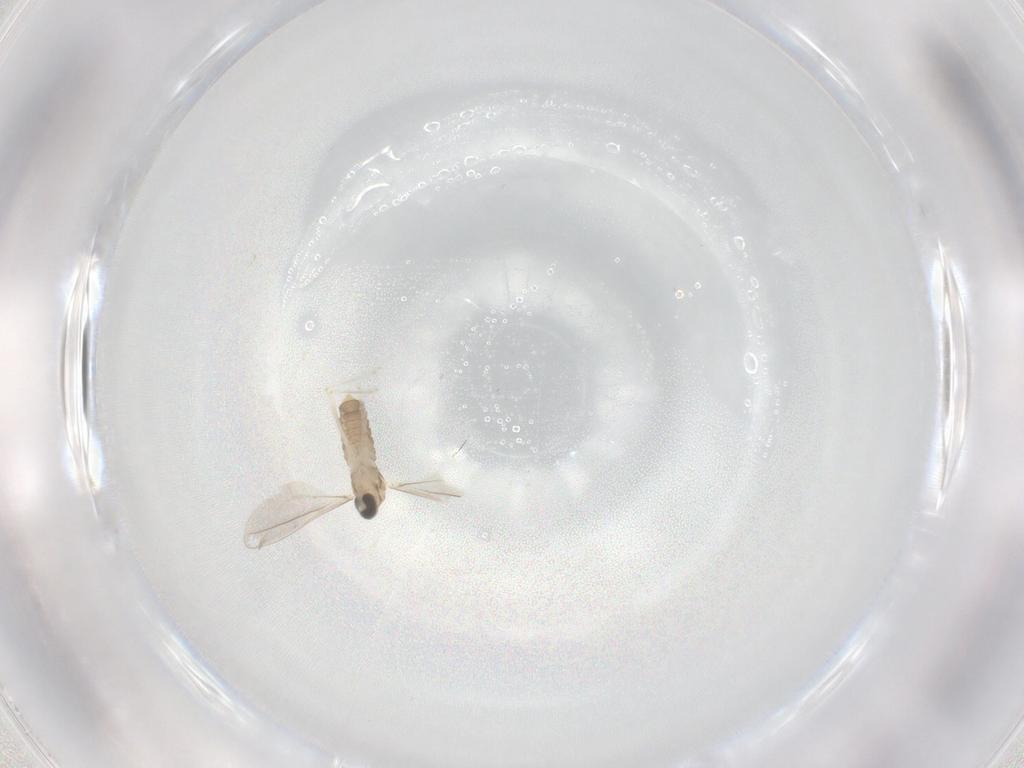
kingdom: Animalia
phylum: Arthropoda
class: Insecta
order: Diptera
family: Cecidomyiidae
